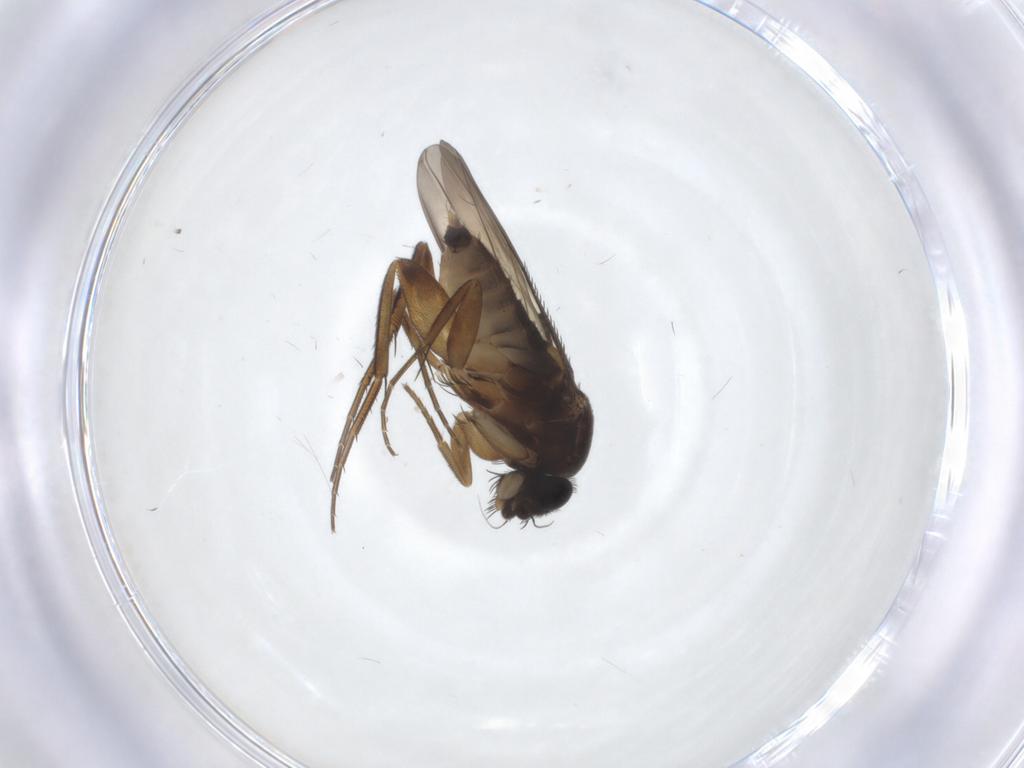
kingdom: Animalia
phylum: Arthropoda
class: Insecta
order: Diptera
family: Phoridae
